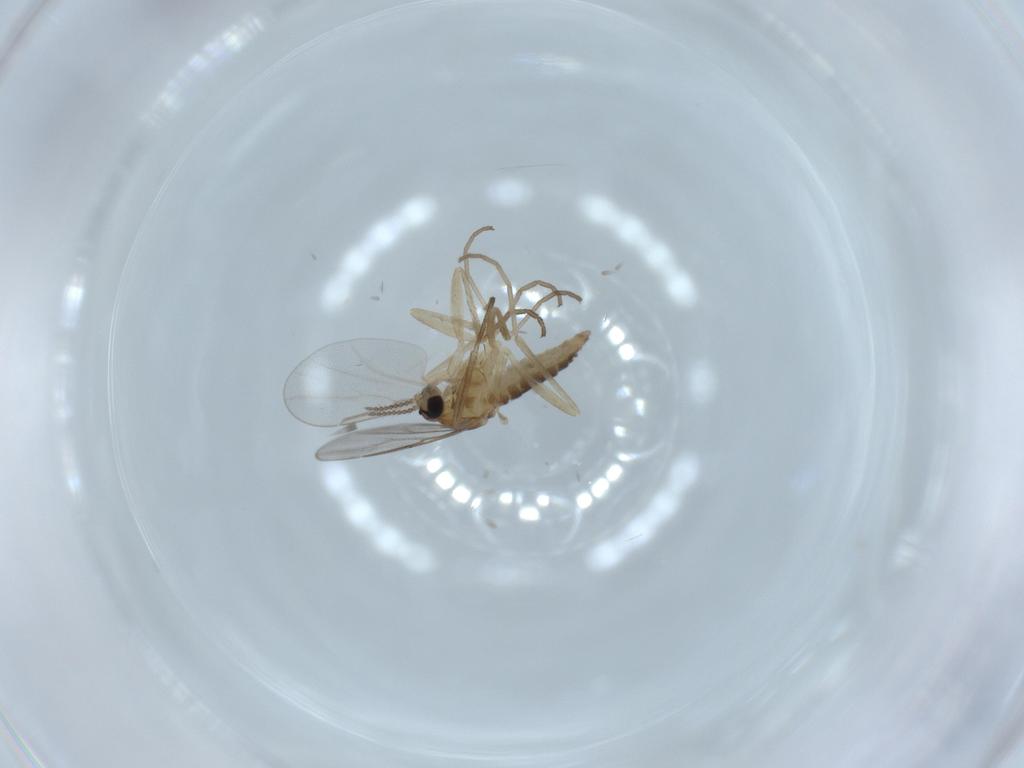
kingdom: Animalia
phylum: Arthropoda
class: Insecta
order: Diptera
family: Cecidomyiidae
